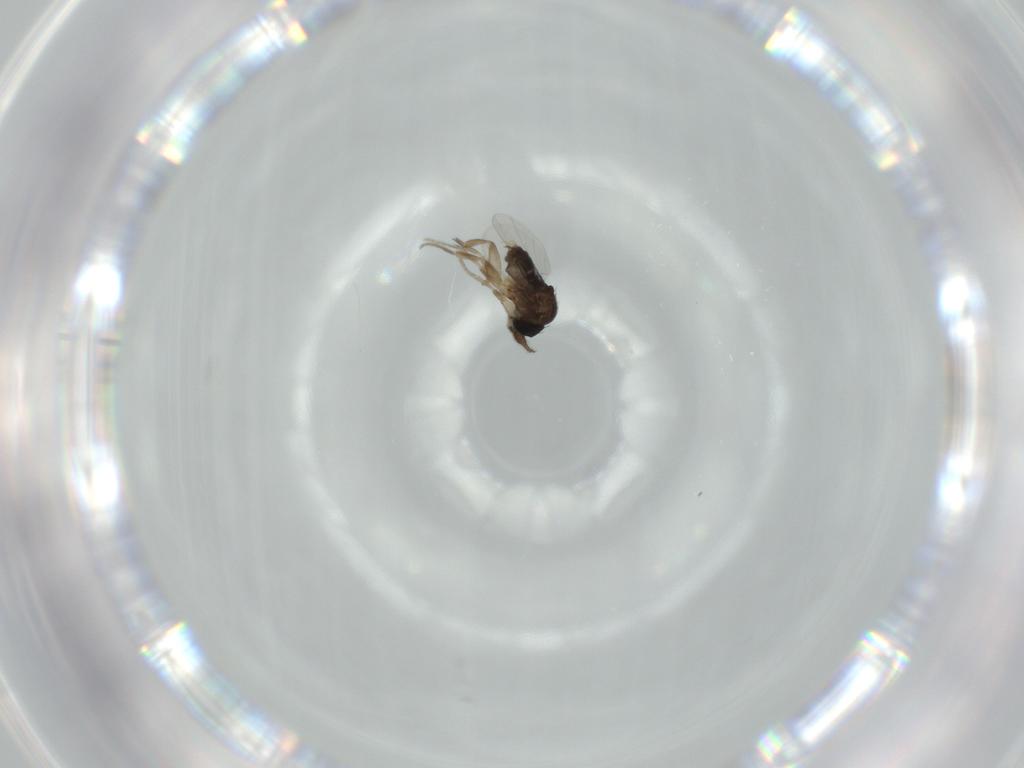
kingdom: Animalia
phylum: Arthropoda
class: Insecta
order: Diptera
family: Phoridae
